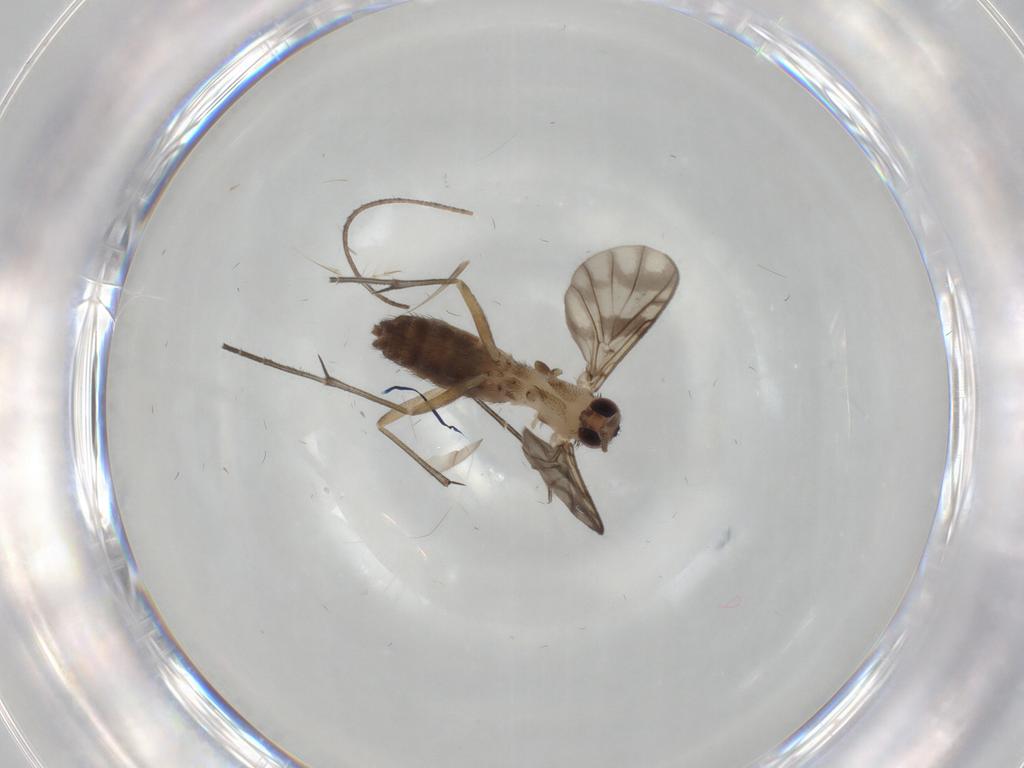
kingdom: Animalia
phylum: Arthropoda
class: Insecta
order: Diptera
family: Keroplatidae
